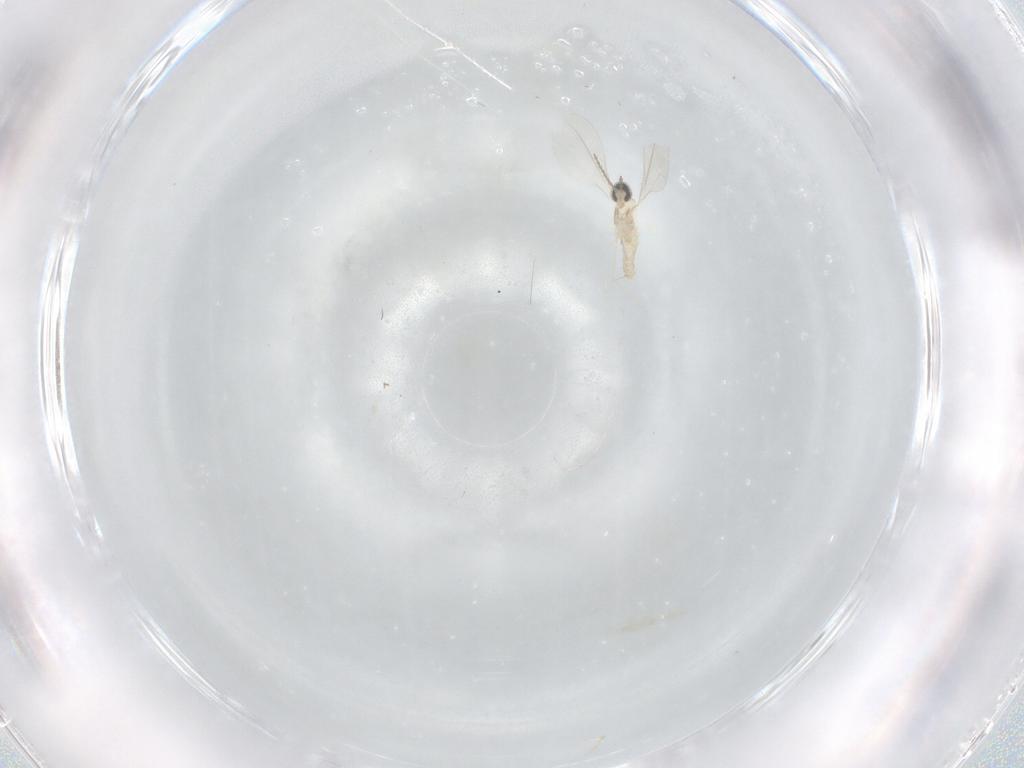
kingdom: Animalia
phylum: Arthropoda
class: Insecta
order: Diptera
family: Cecidomyiidae
